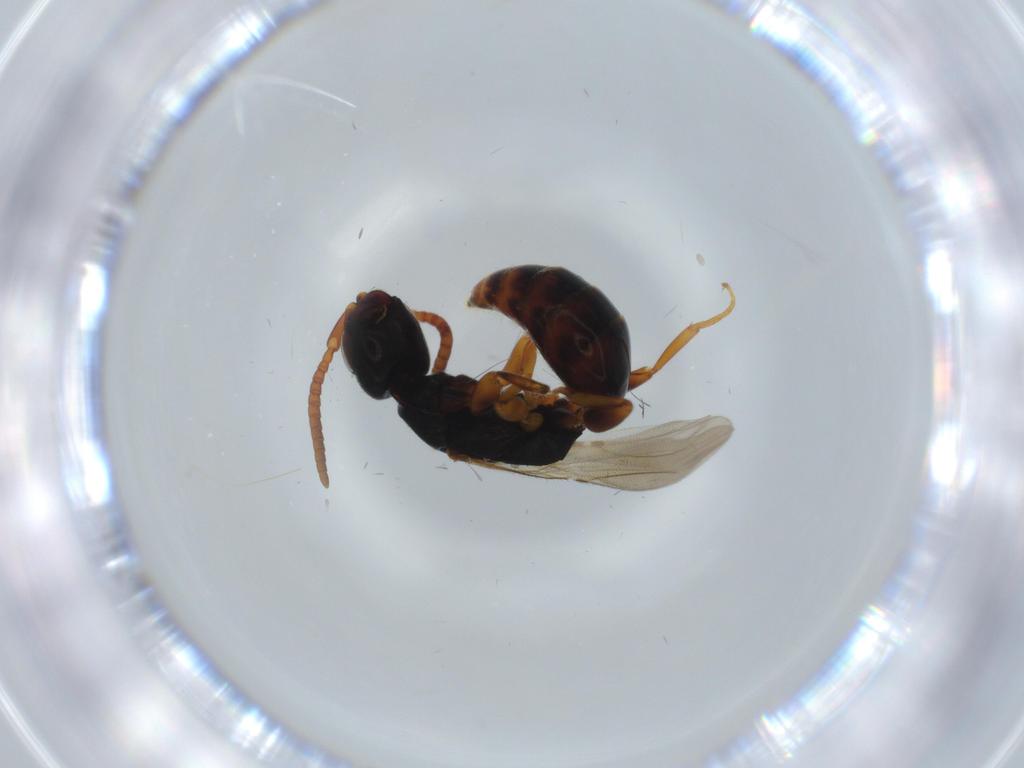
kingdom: Animalia
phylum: Arthropoda
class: Insecta
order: Hymenoptera
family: Bethylidae
